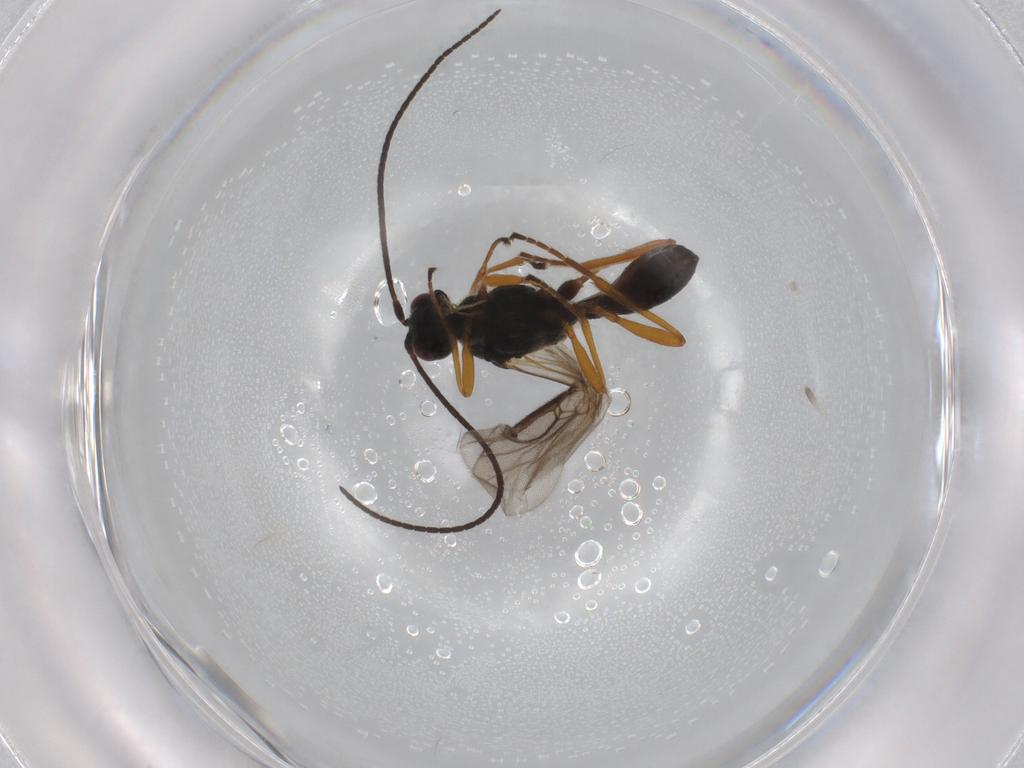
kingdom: Animalia
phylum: Arthropoda
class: Insecta
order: Hymenoptera
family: Braconidae
